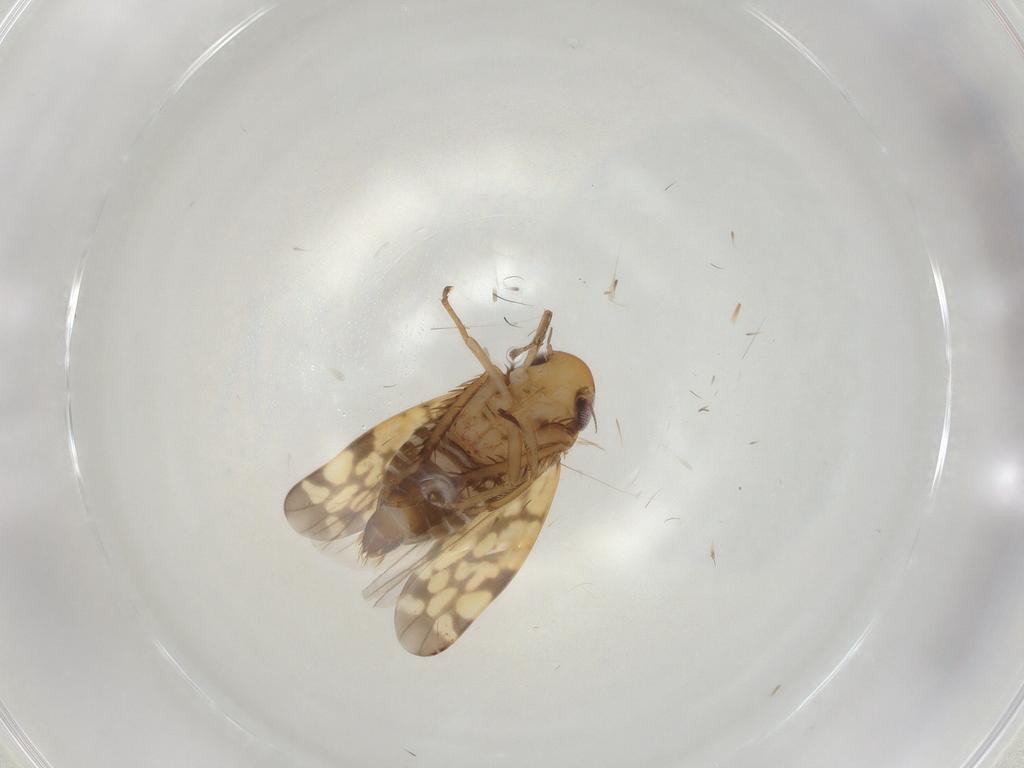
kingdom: Animalia
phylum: Arthropoda
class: Insecta
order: Hemiptera
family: Cicadellidae
